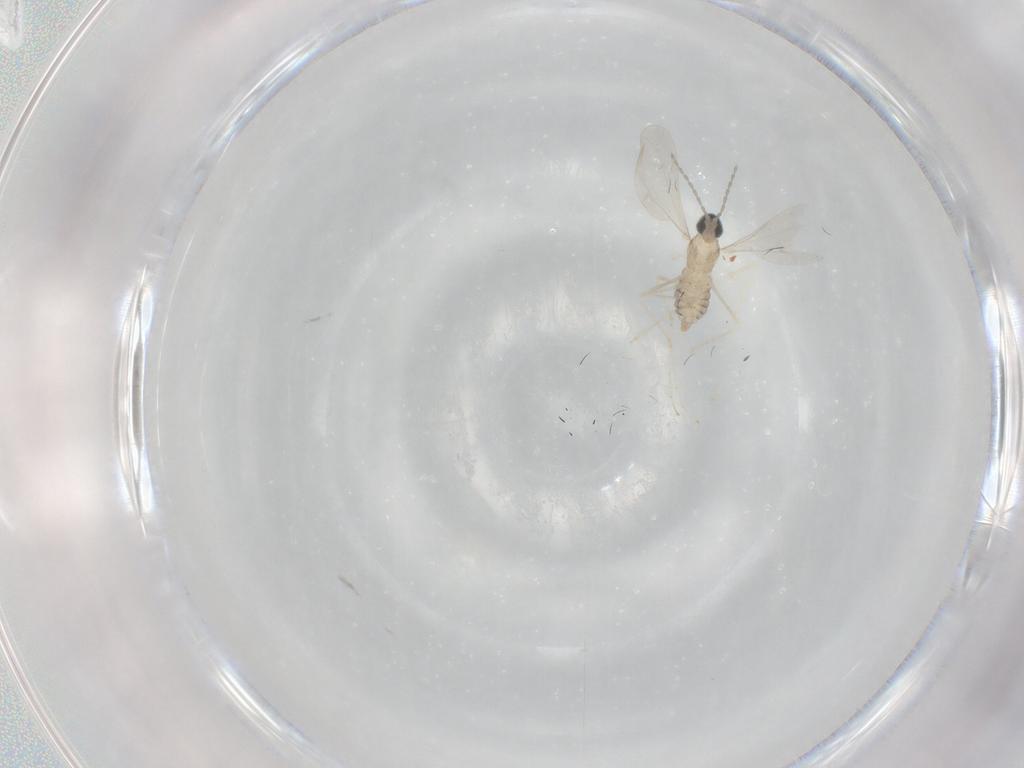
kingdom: Animalia
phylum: Arthropoda
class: Insecta
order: Diptera
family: Cecidomyiidae
